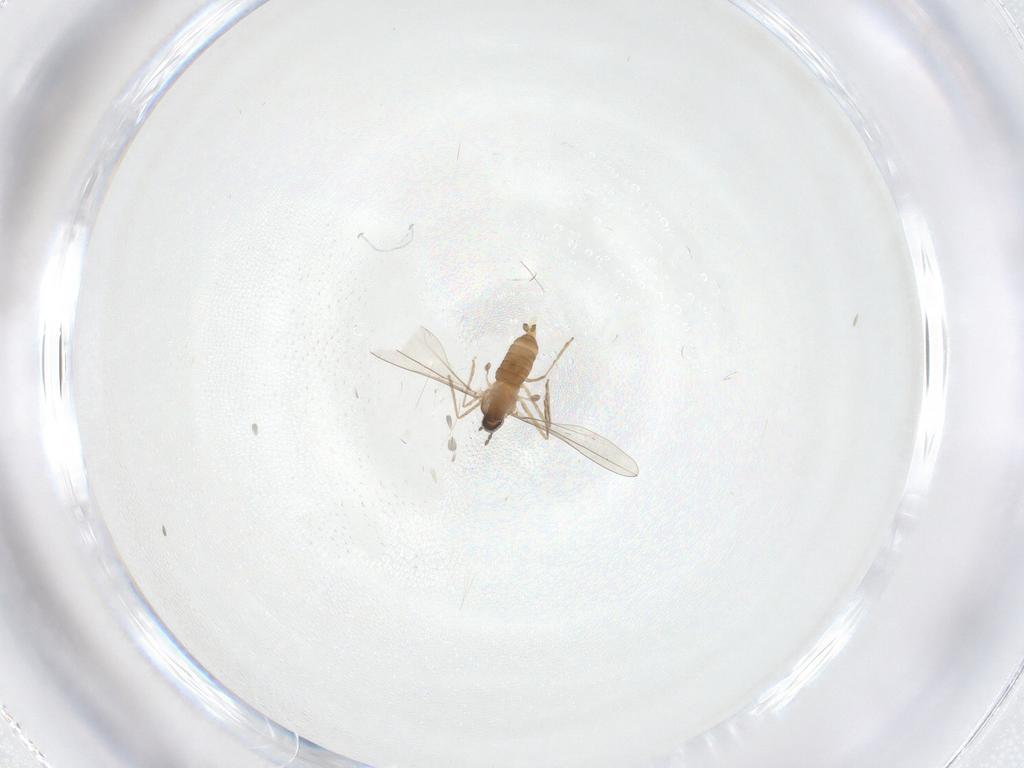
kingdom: Animalia
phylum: Arthropoda
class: Insecta
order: Diptera
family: Cecidomyiidae
